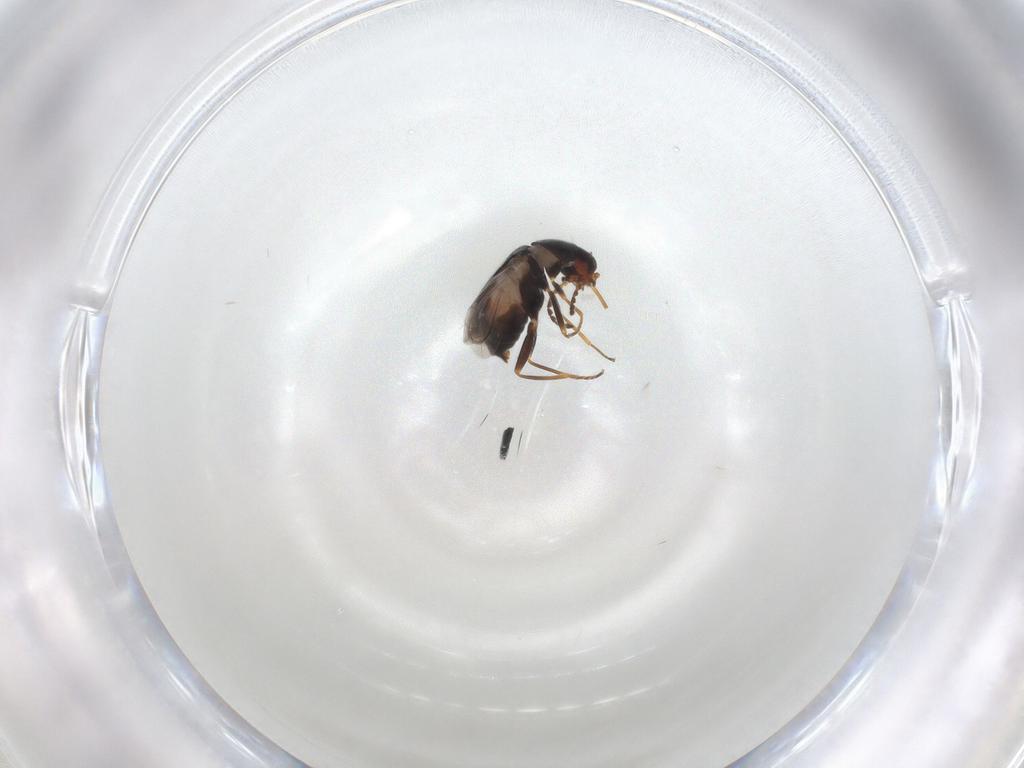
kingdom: Animalia
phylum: Arthropoda
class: Insecta
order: Coleoptera
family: Melyridae
